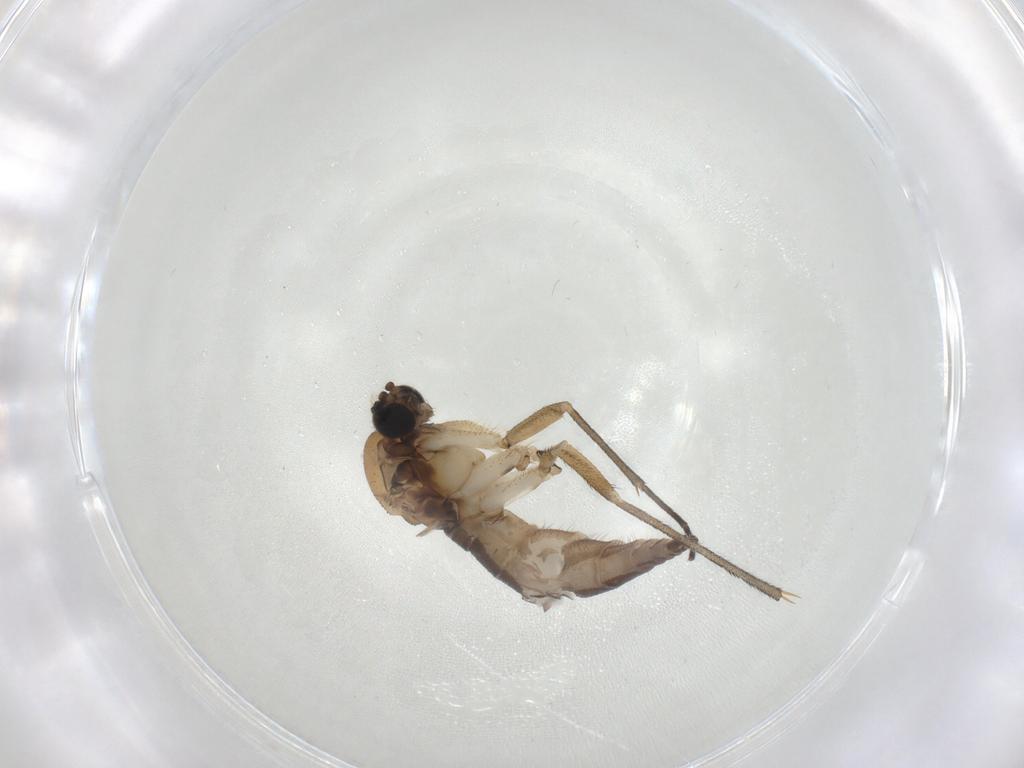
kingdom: Animalia
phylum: Arthropoda
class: Insecta
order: Diptera
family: Sciaridae
